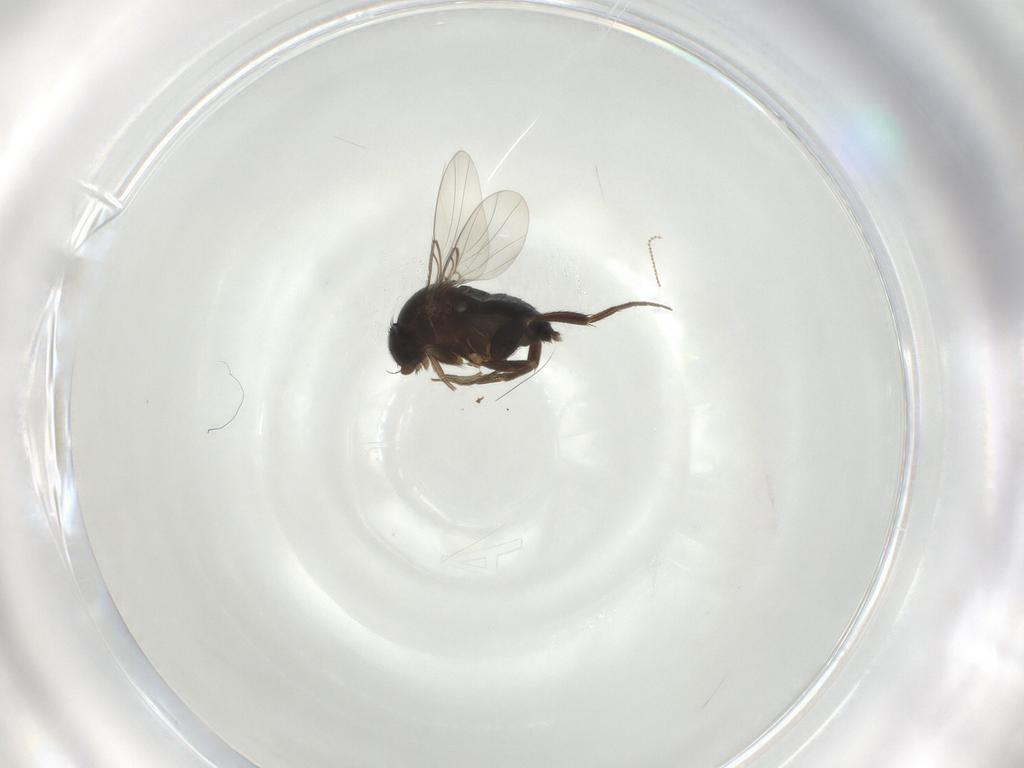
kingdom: Animalia
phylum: Arthropoda
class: Insecta
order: Diptera
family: Phoridae
